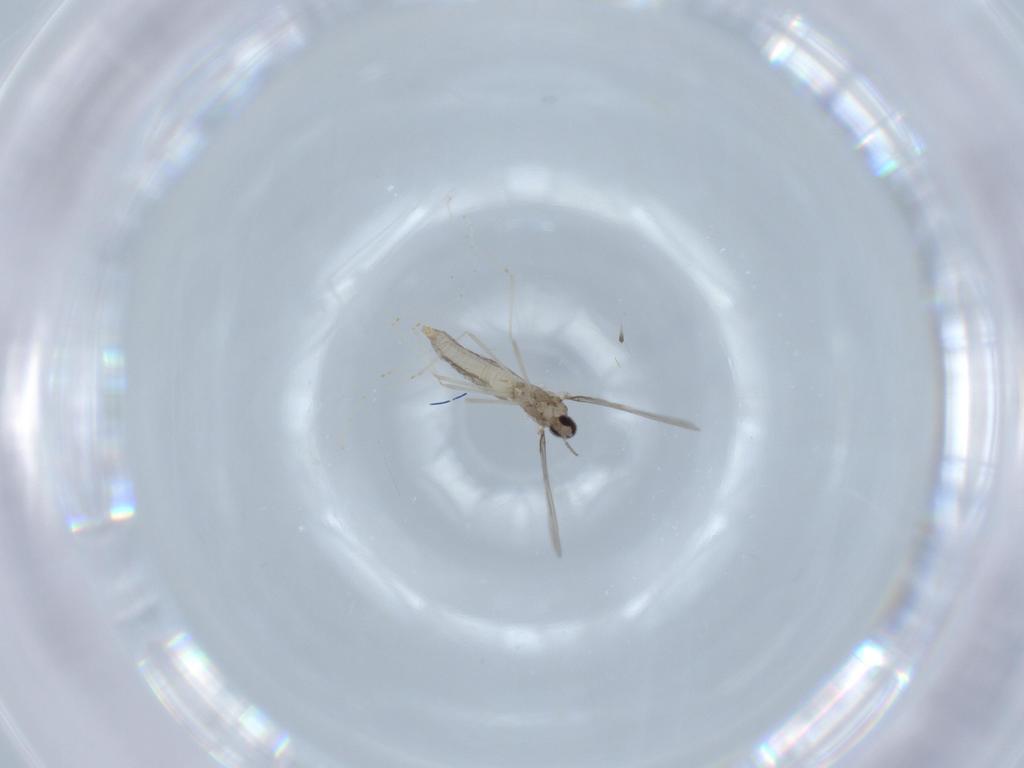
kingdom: Animalia
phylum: Arthropoda
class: Insecta
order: Diptera
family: Cecidomyiidae
